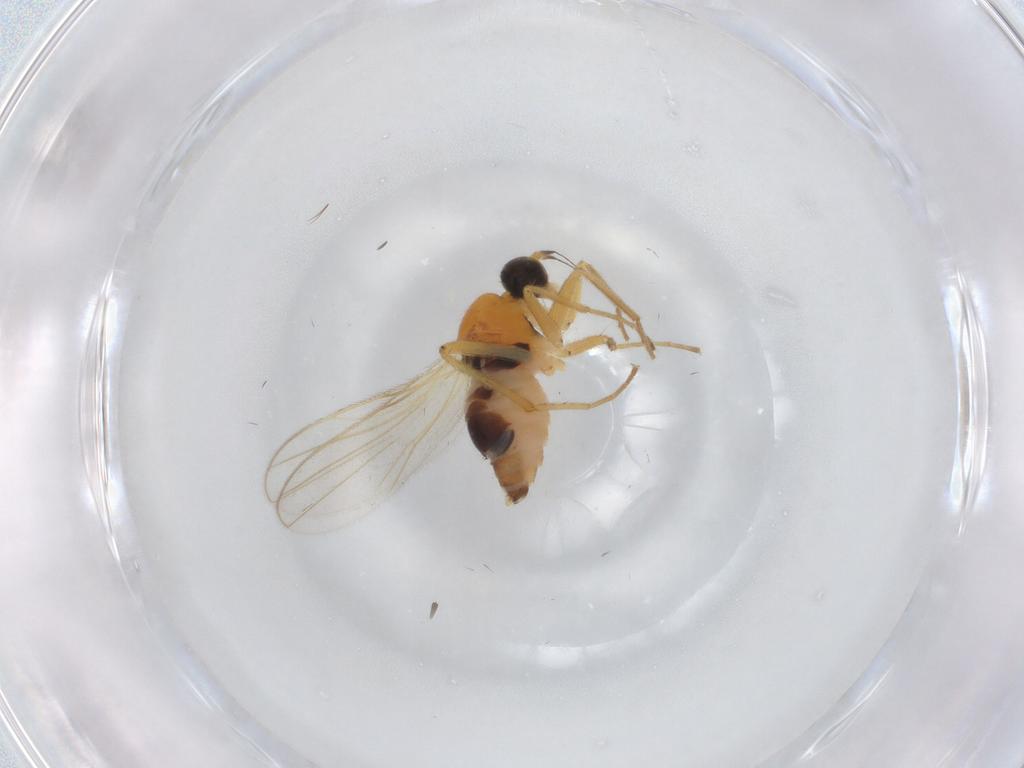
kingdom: Animalia
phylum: Arthropoda
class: Insecta
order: Diptera
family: Hybotidae
